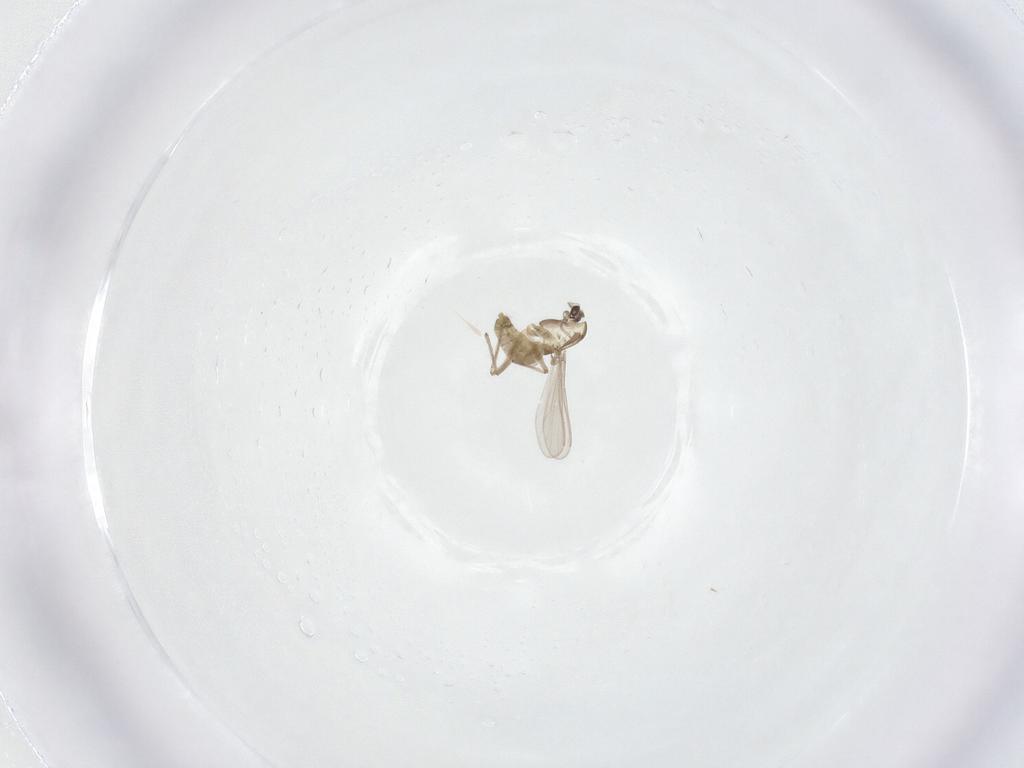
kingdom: Animalia
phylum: Arthropoda
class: Insecta
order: Diptera
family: Chironomidae
